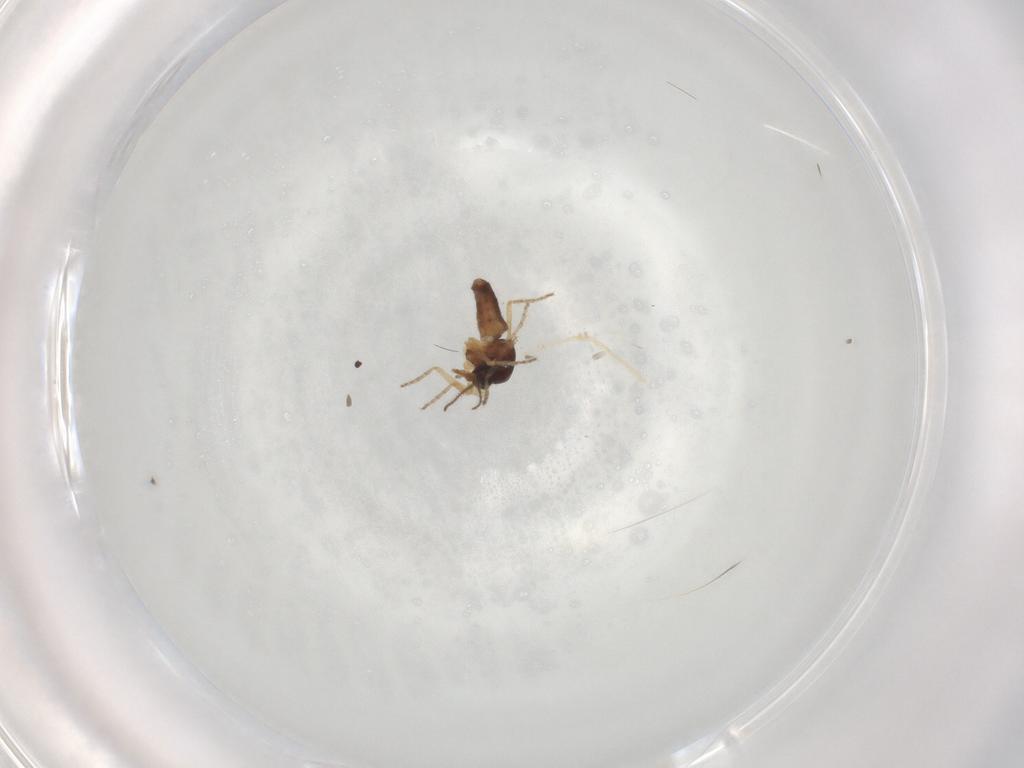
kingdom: Animalia
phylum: Arthropoda
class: Insecta
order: Diptera
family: Ceratopogonidae
